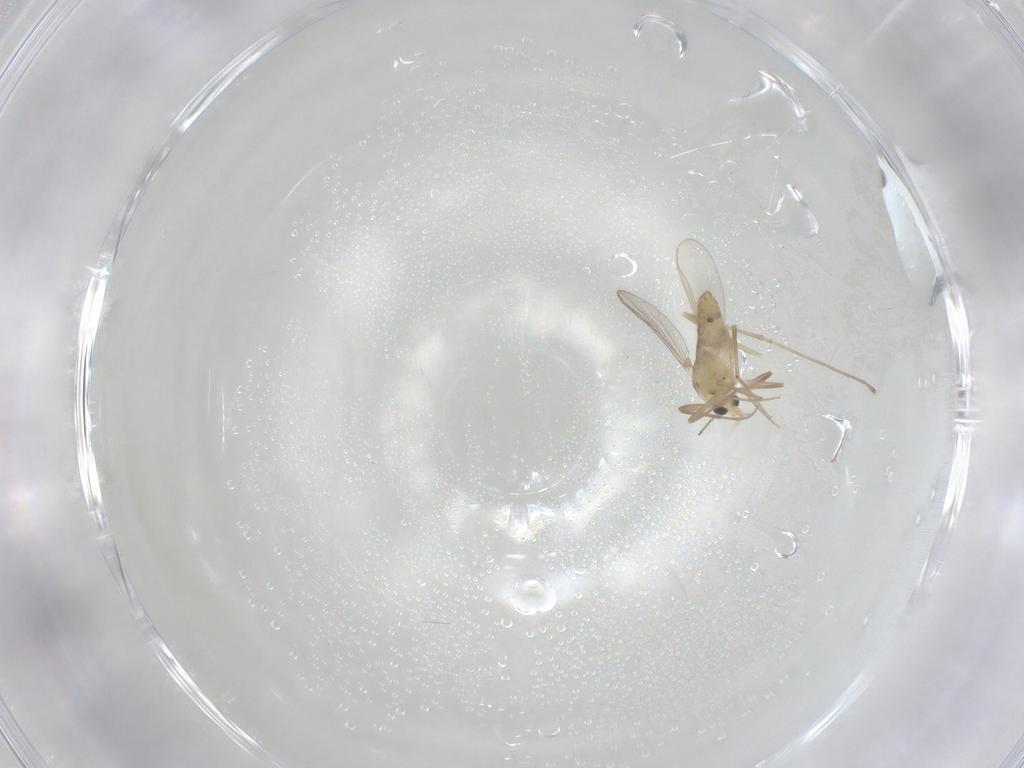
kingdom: Animalia
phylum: Arthropoda
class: Insecta
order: Diptera
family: Chironomidae
